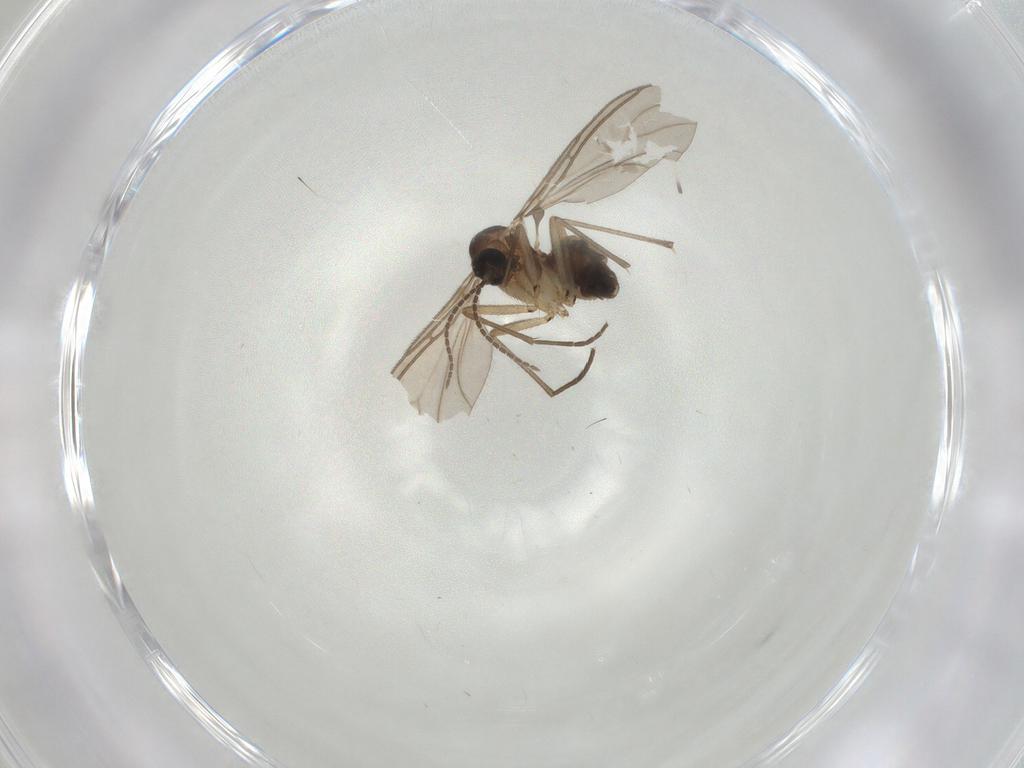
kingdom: Animalia
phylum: Arthropoda
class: Insecta
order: Diptera
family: Sciaridae
